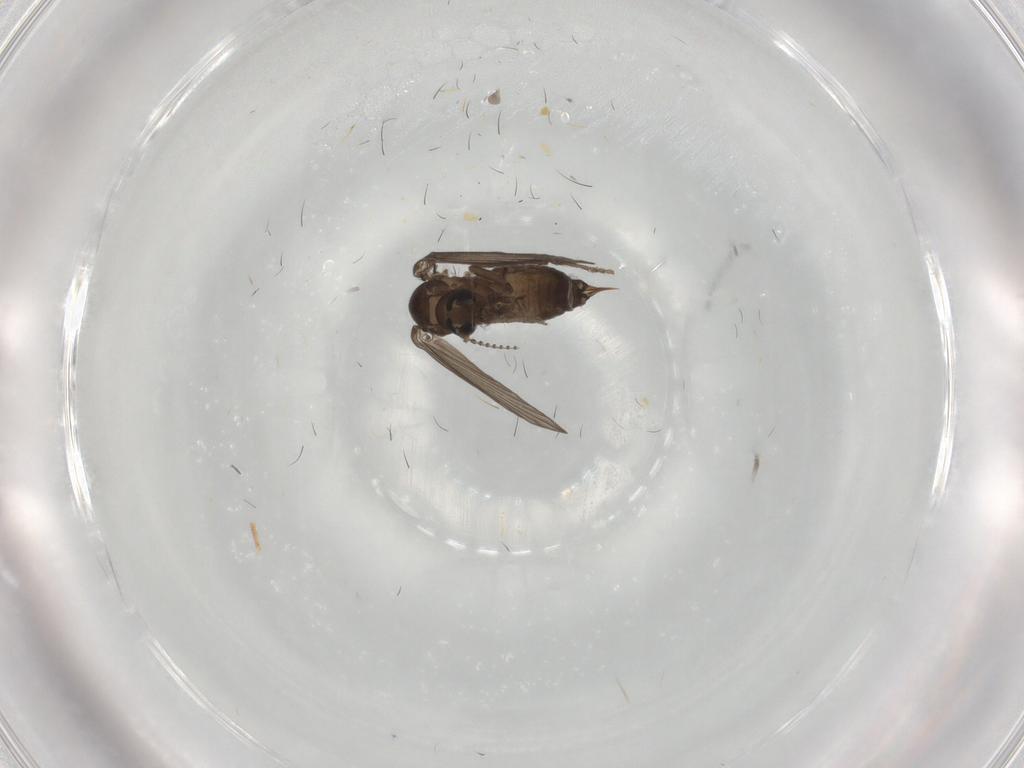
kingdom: Animalia
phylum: Arthropoda
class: Insecta
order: Diptera
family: Psychodidae
